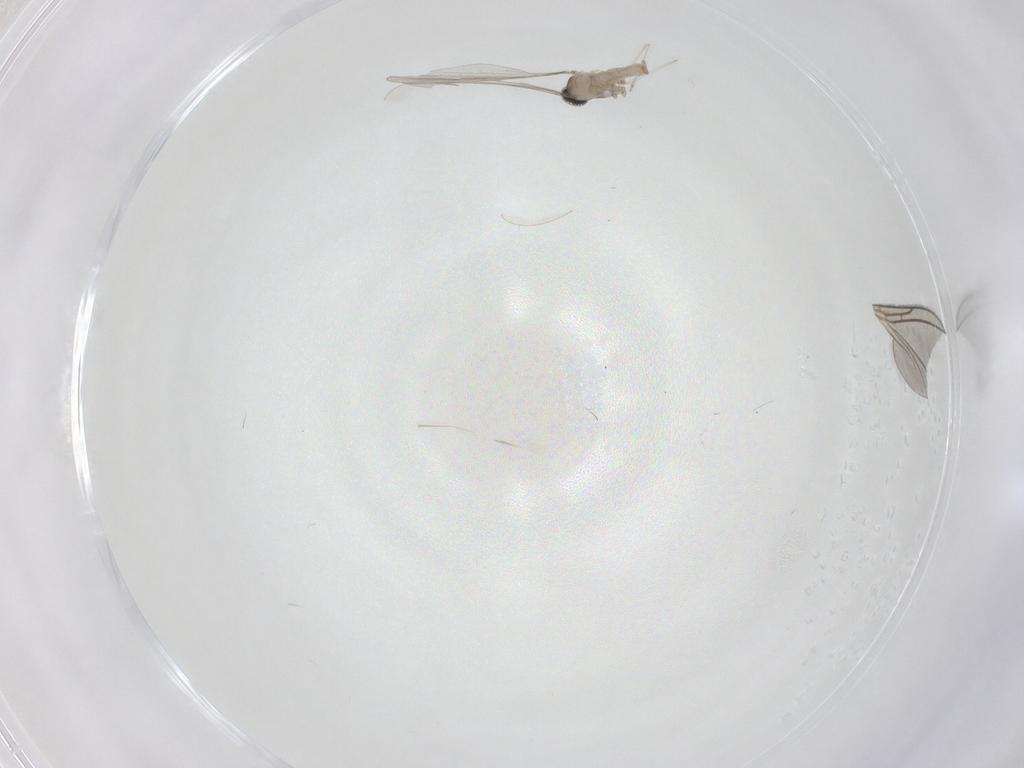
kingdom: Animalia
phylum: Arthropoda
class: Insecta
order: Diptera
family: Cecidomyiidae
